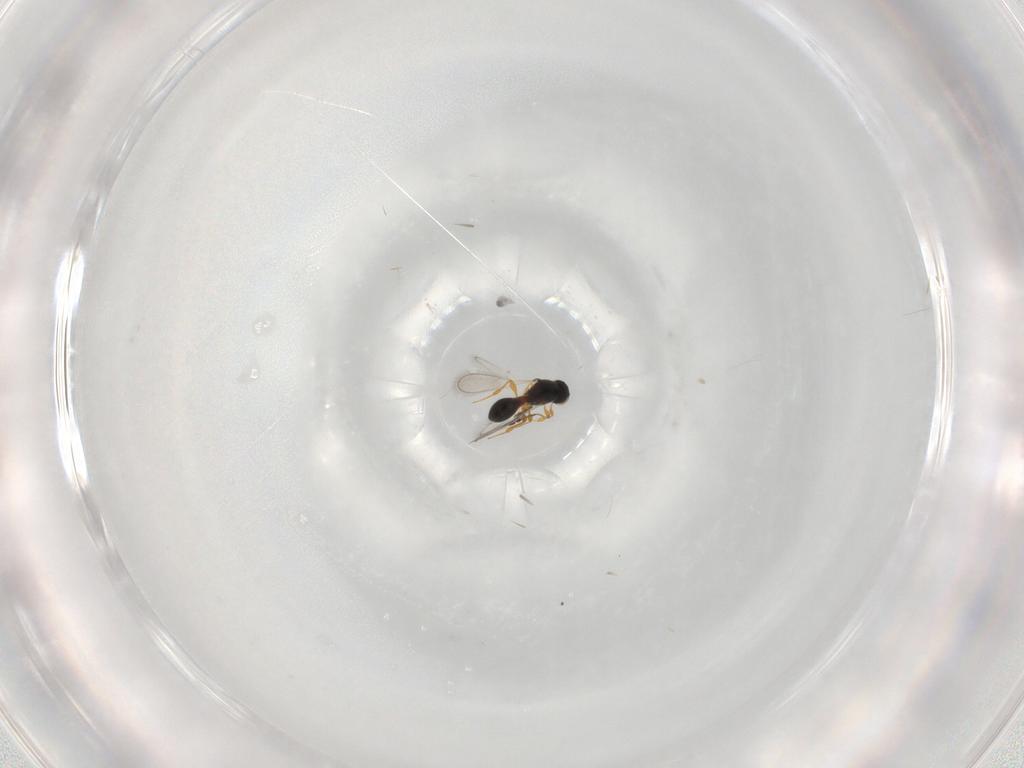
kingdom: Animalia
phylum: Arthropoda
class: Insecta
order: Hymenoptera
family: Platygastridae
